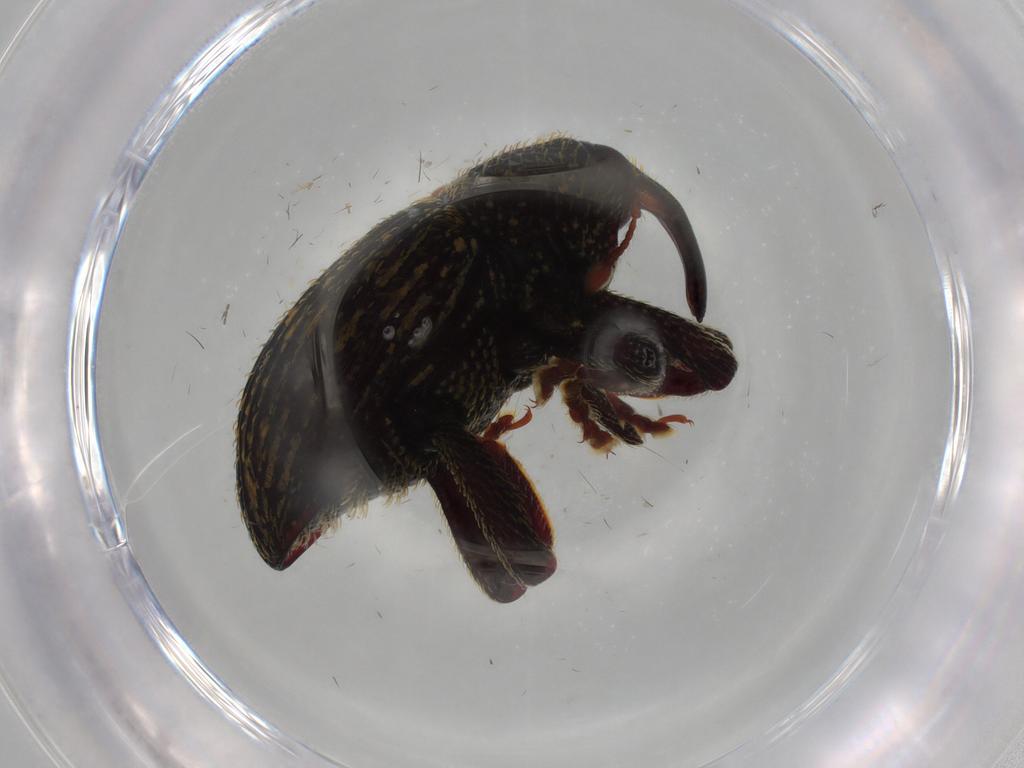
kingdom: Animalia
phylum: Arthropoda
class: Insecta
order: Coleoptera
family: Curculionidae
